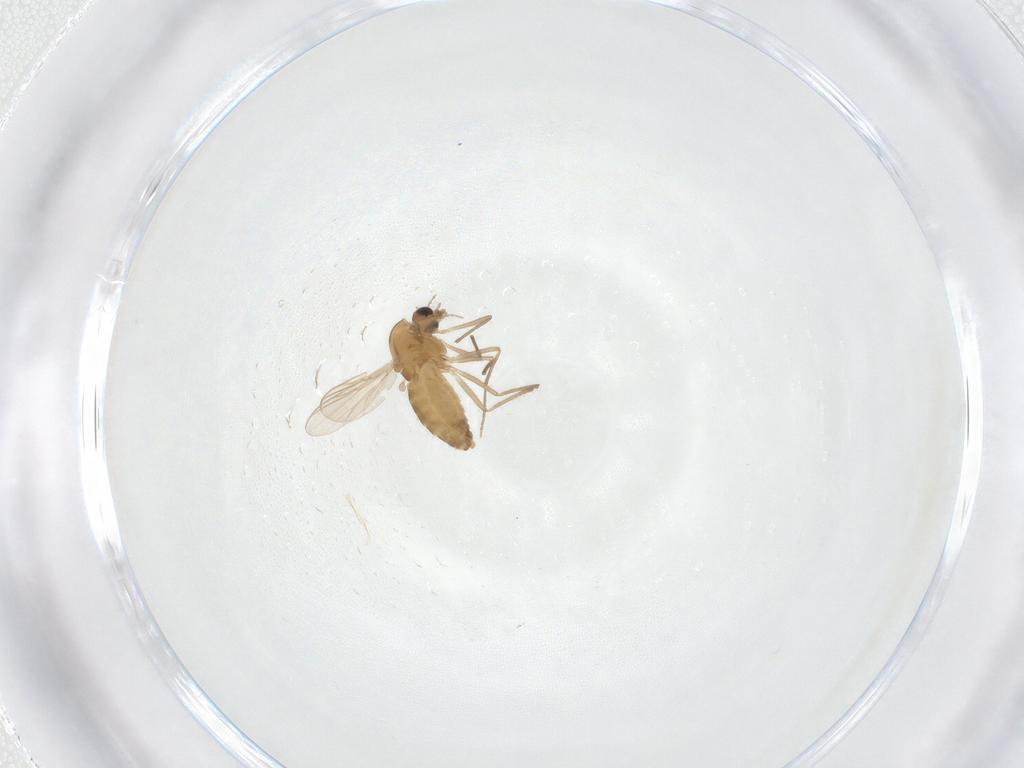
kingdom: Animalia
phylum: Arthropoda
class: Insecta
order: Diptera
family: Chironomidae
